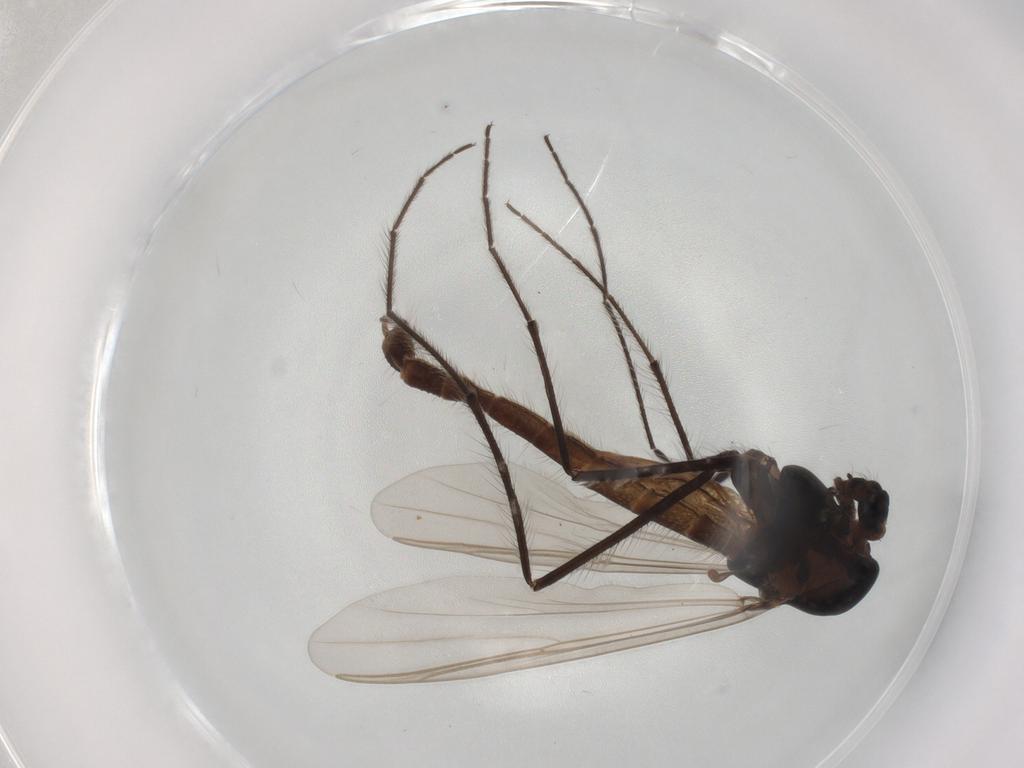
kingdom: Animalia
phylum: Arthropoda
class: Insecta
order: Diptera
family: Chironomidae
